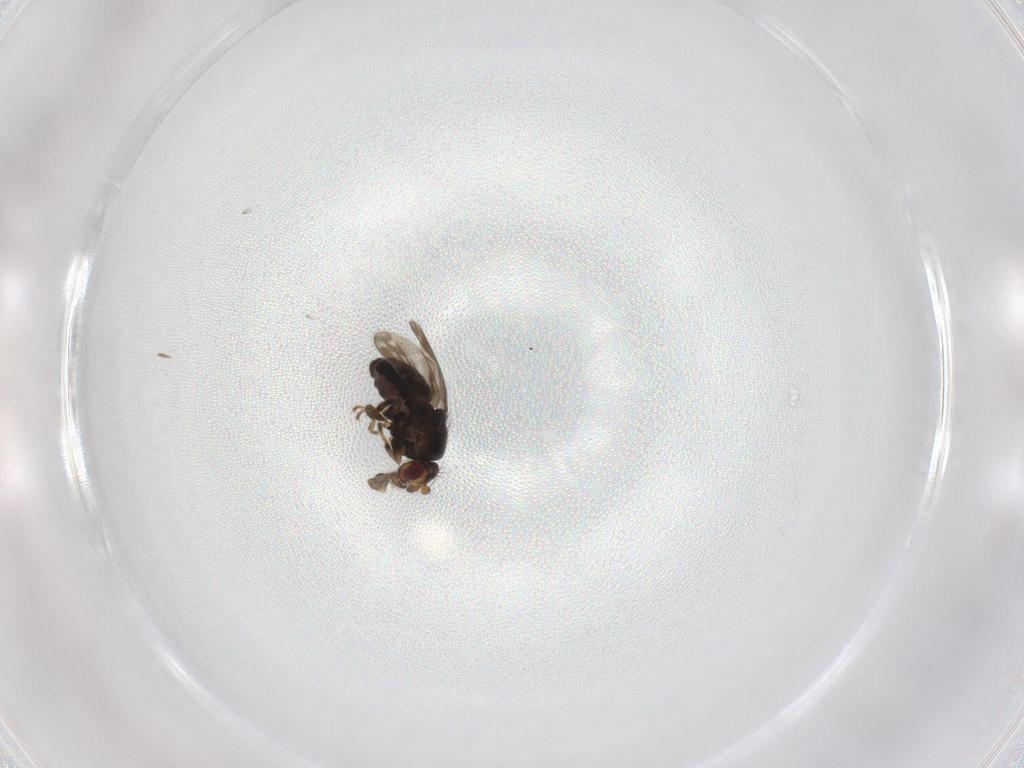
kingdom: Animalia
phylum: Arthropoda
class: Insecta
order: Diptera
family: Sphaeroceridae
